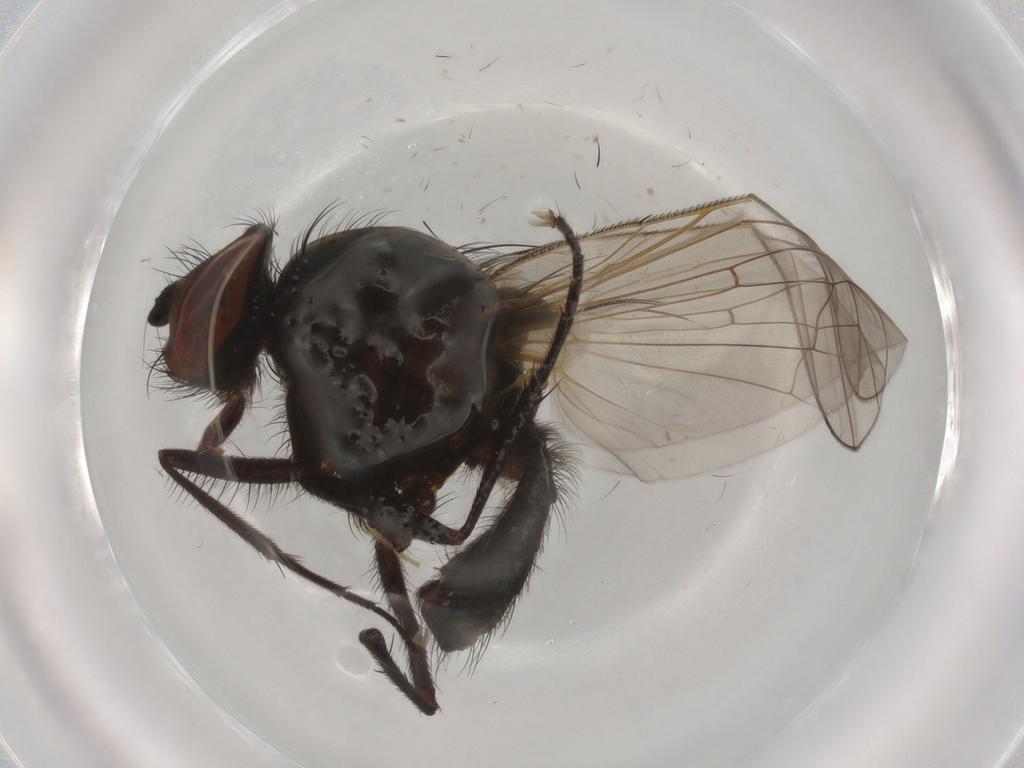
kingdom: Animalia
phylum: Arthropoda
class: Insecta
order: Diptera
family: Chloropidae
